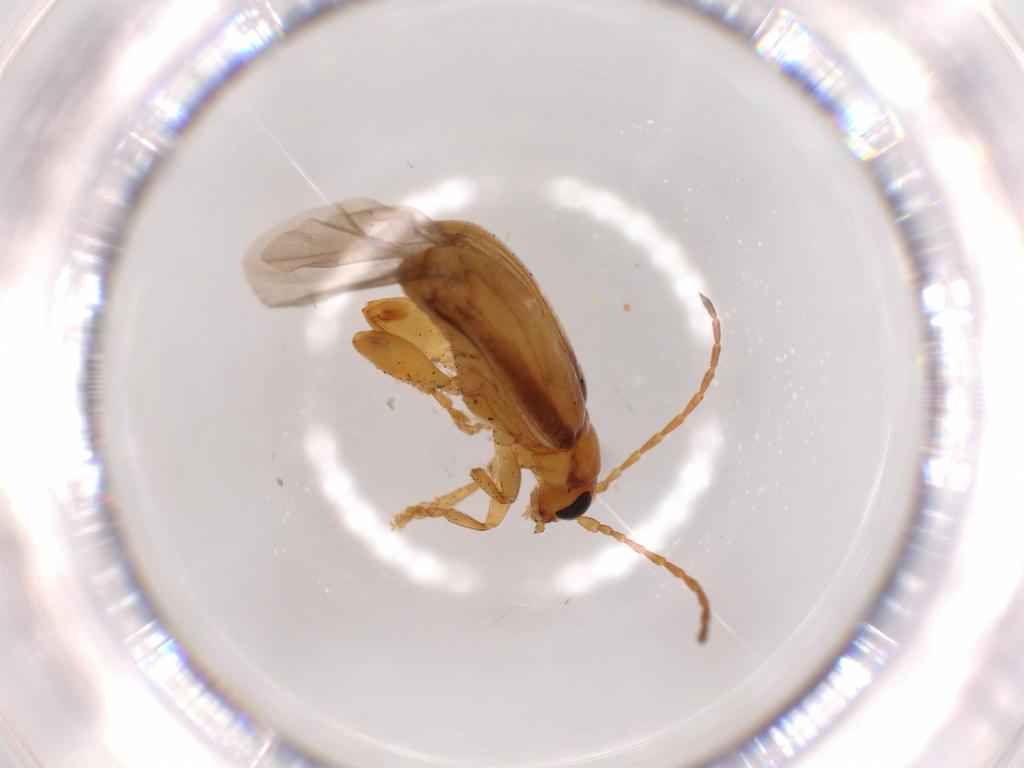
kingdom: Animalia
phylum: Arthropoda
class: Insecta
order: Coleoptera
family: Chrysomelidae
